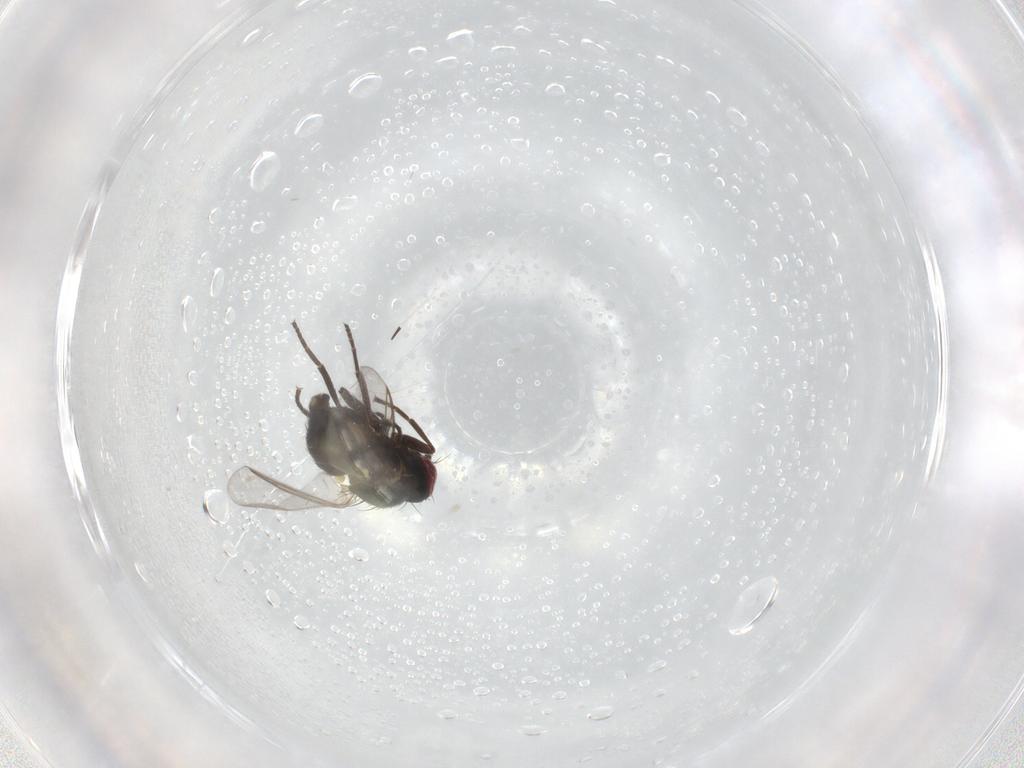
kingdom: Animalia
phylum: Arthropoda
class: Insecta
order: Diptera
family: Agromyzidae
